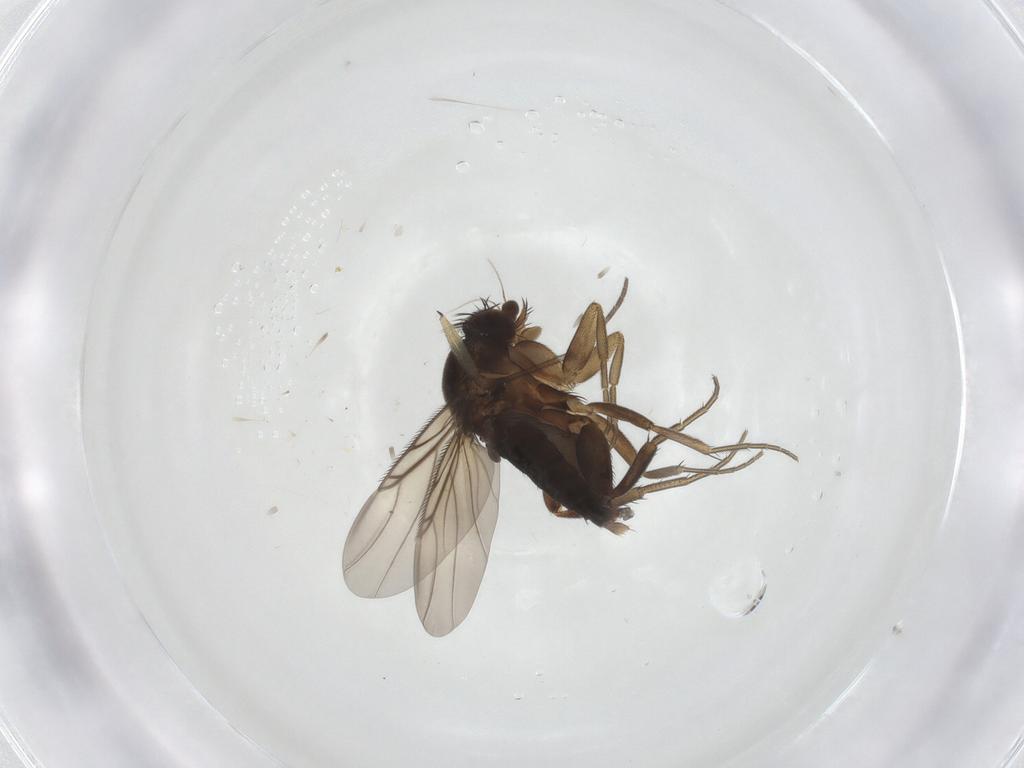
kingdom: Animalia
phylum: Arthropoda
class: Insecta
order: Diptera
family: Phoridae
